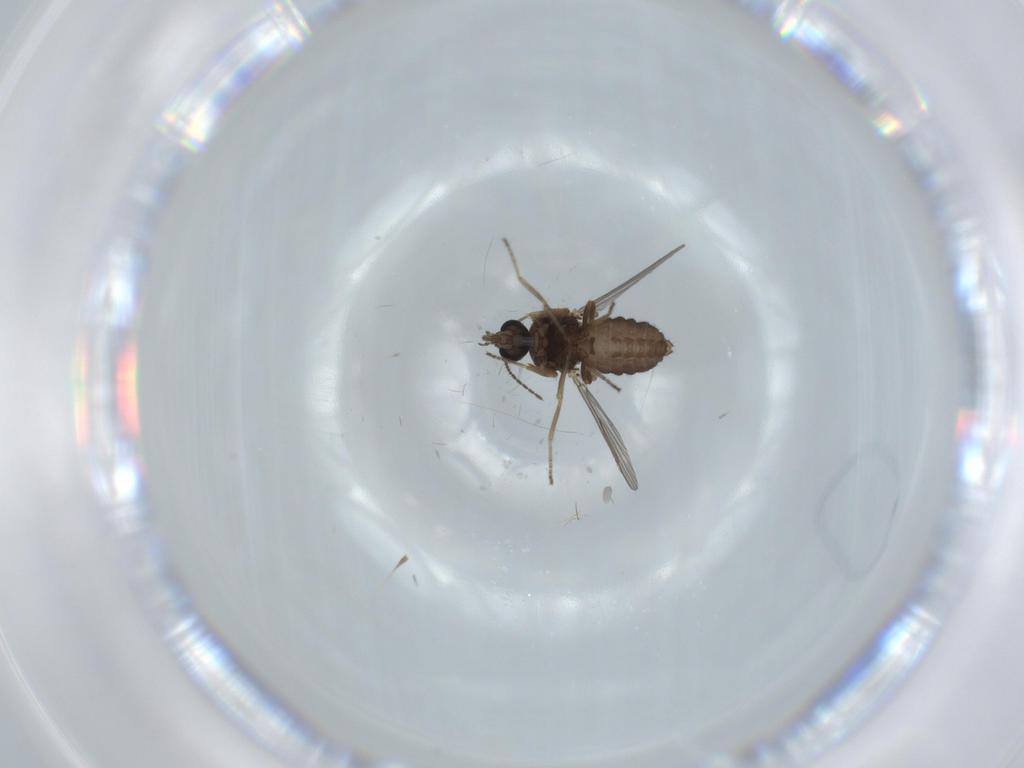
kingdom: Animalia
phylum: Arthropoda
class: Insecta
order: Diptera
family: Ceratopogonidae
